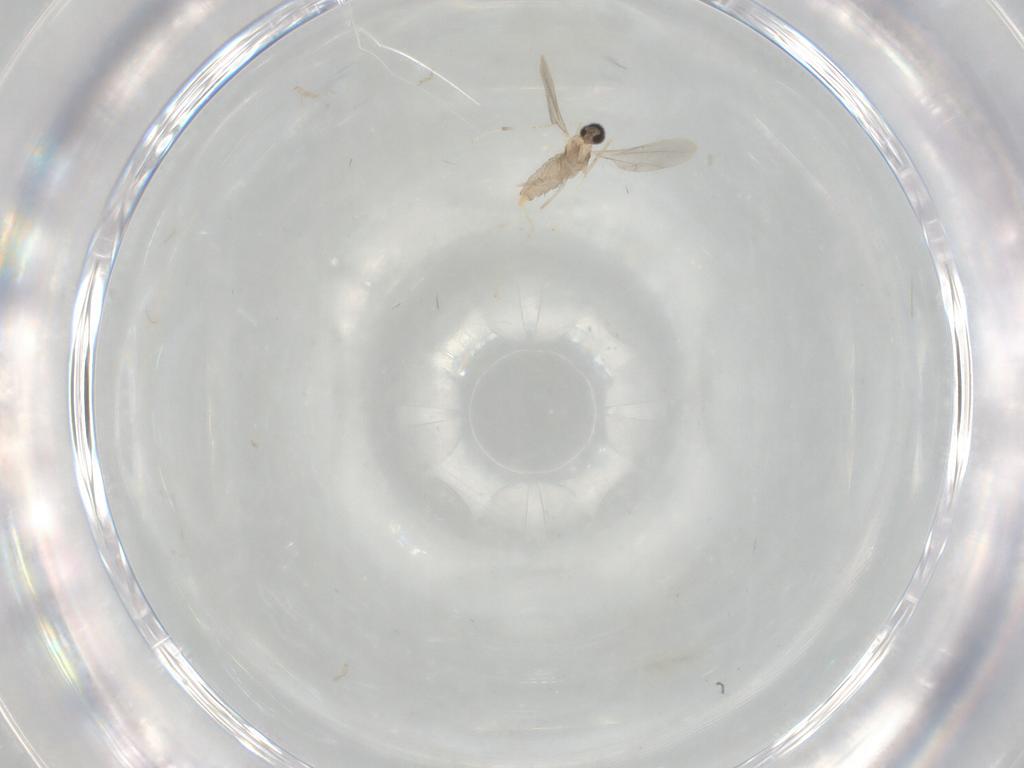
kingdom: Animalia
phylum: Arthropoda
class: Insecta
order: Diptera
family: Cecidomyiidae
